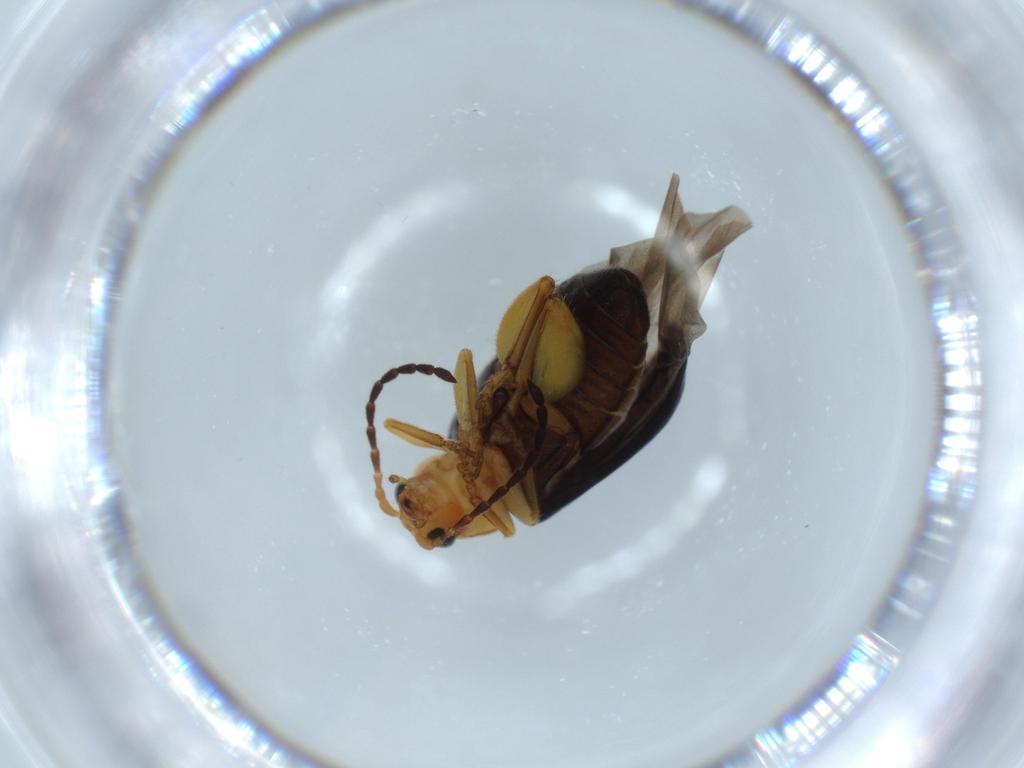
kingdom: Animalia
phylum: Arthropoda
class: Insecta
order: Coleoptera
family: Chrysomelidae
